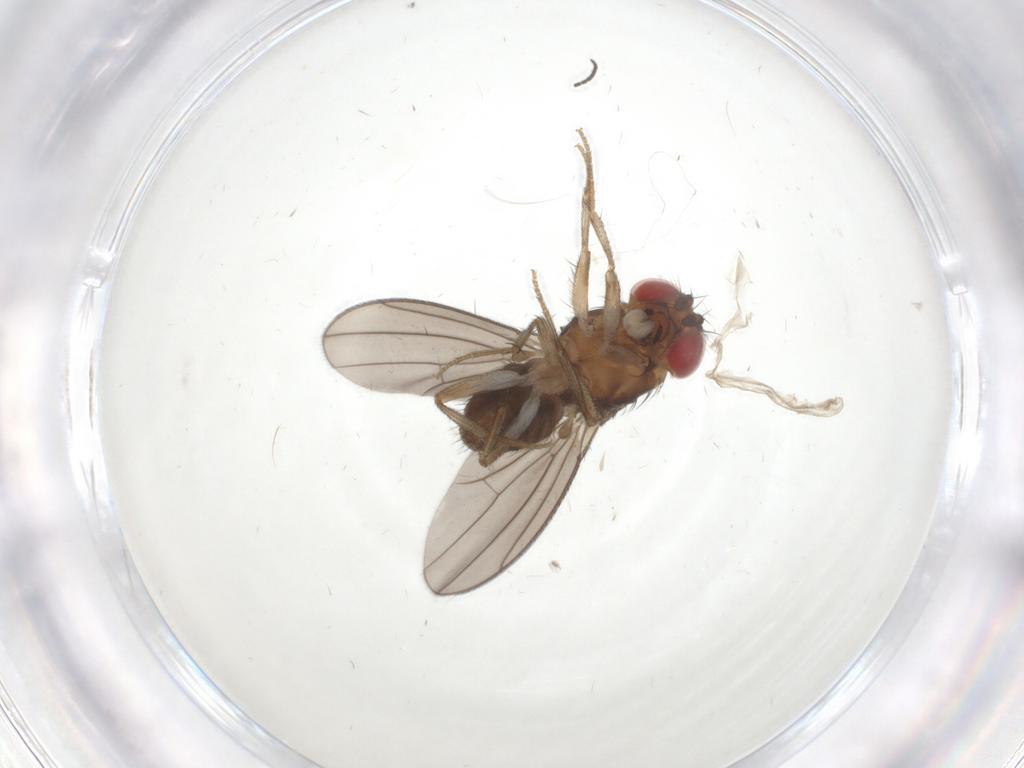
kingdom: Animalia
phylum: Arthropoda
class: Insecta
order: Diptera
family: Drosophilidae
